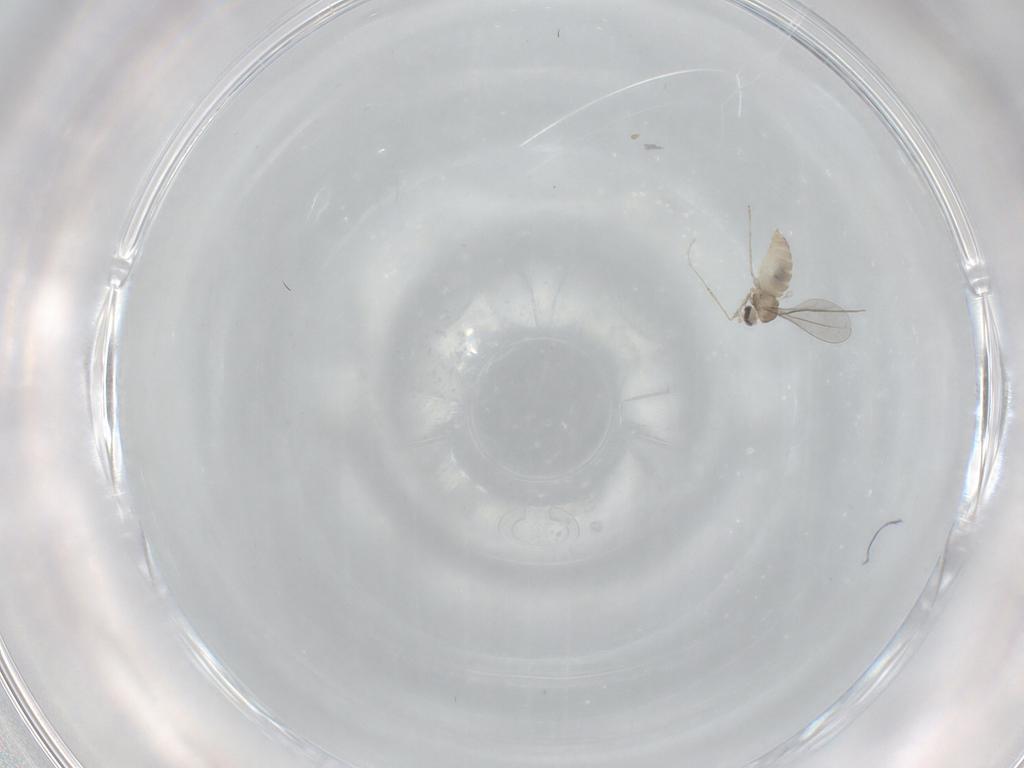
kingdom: Animalia
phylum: Arthropoda
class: Insecta
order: Diptera
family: Cecidomyiidae
